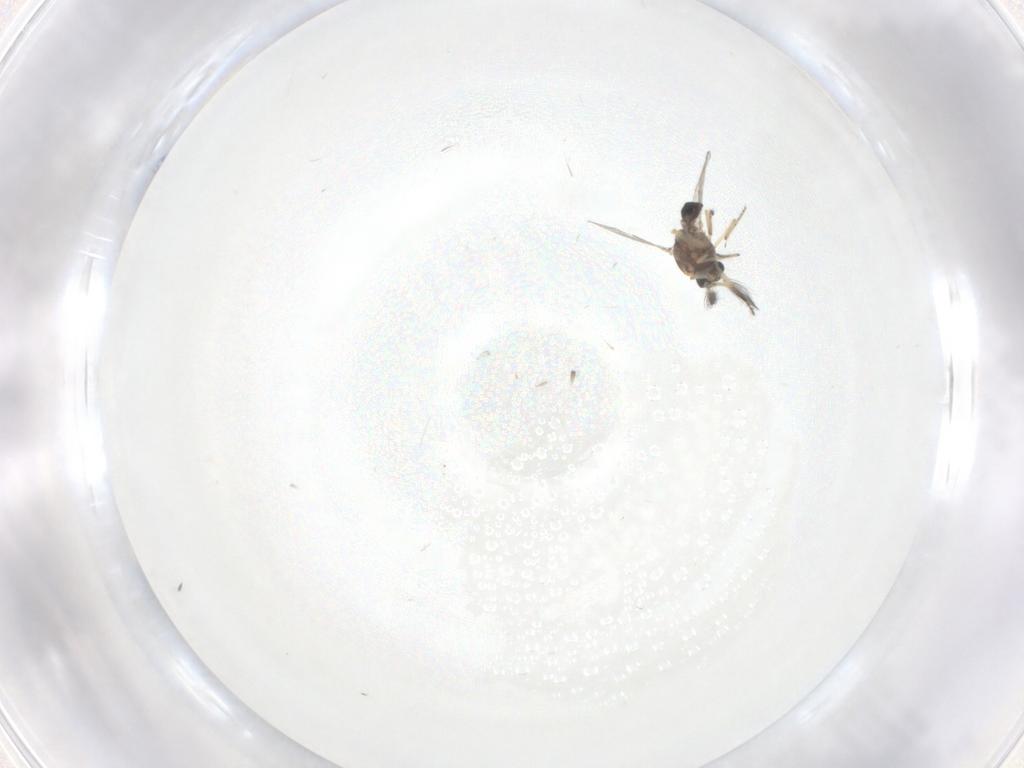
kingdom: Animalia
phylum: Arthropoda
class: Insecta
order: Diptera
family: Ceratopogonidae
